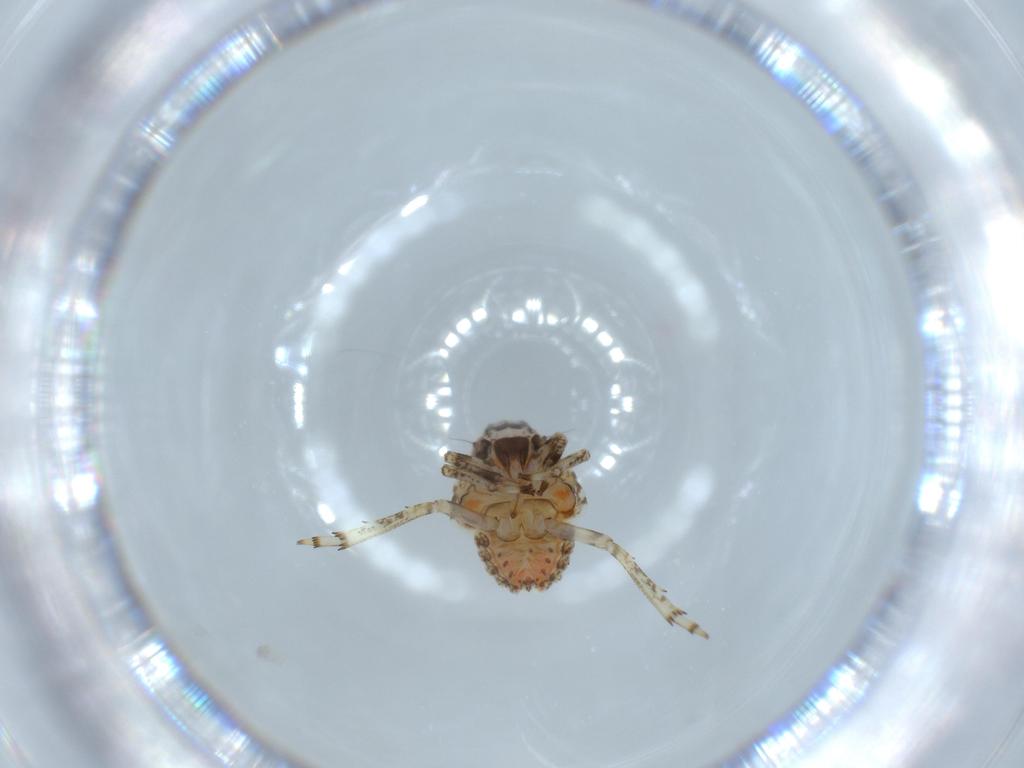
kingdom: Animalia
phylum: Arthropoda
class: Insecta
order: Hemiptera
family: Issidae
